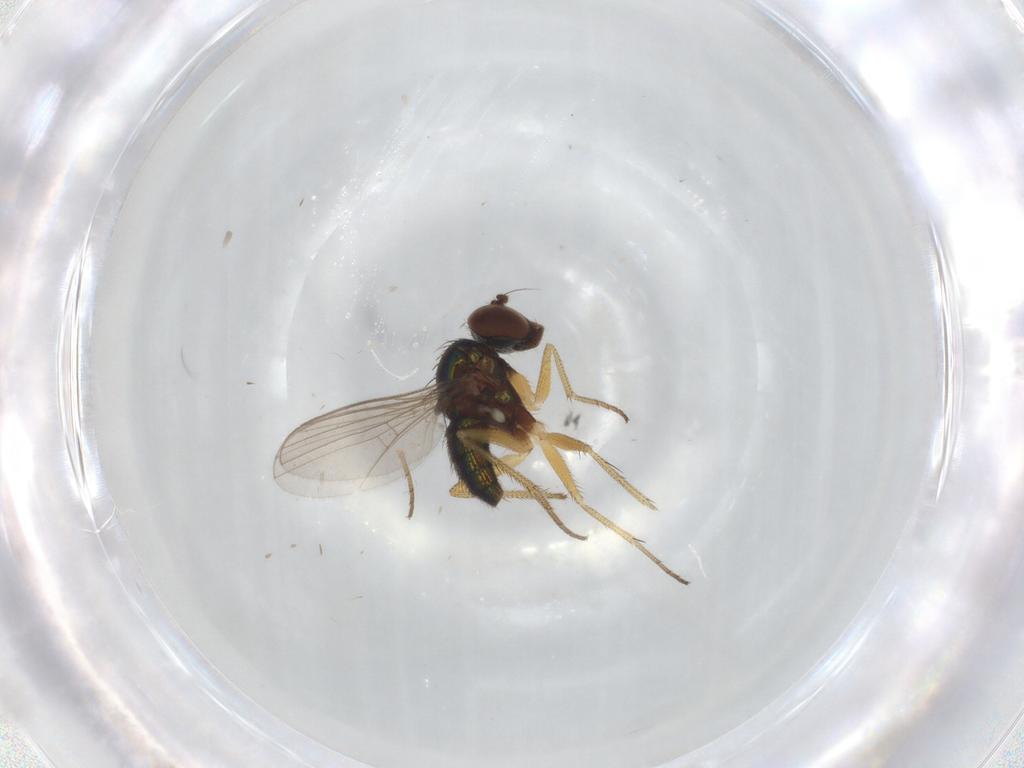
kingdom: Animalia
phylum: Arthropoda
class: Insecta
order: Diptera
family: Dolichopodidae
